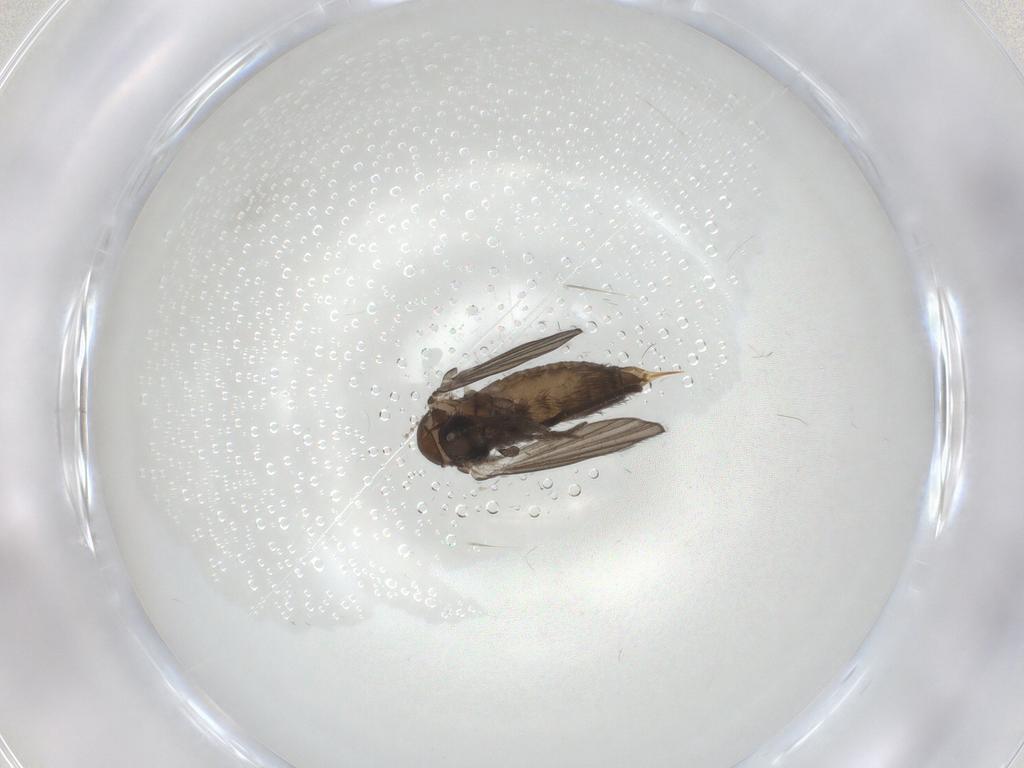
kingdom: Animalia
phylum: Arthropoda
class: Insecta
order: Diptera
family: Psychodidae
